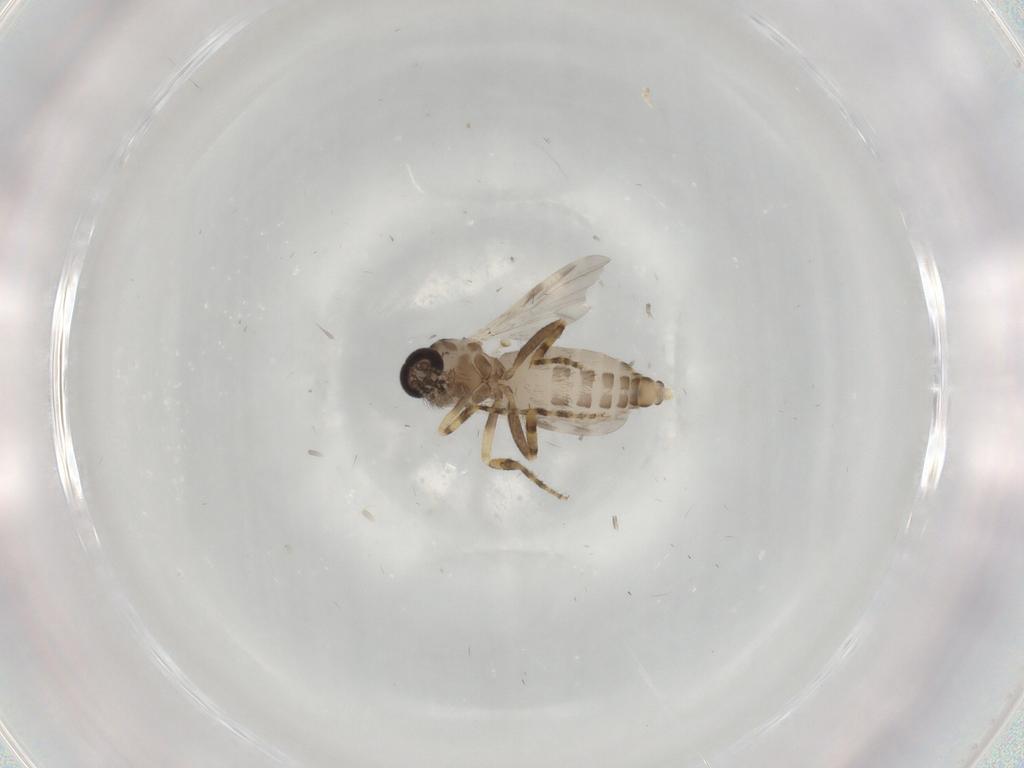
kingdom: Animalia
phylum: Arthropoda
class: Insecta
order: Diptera
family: Ceratopogonidae
